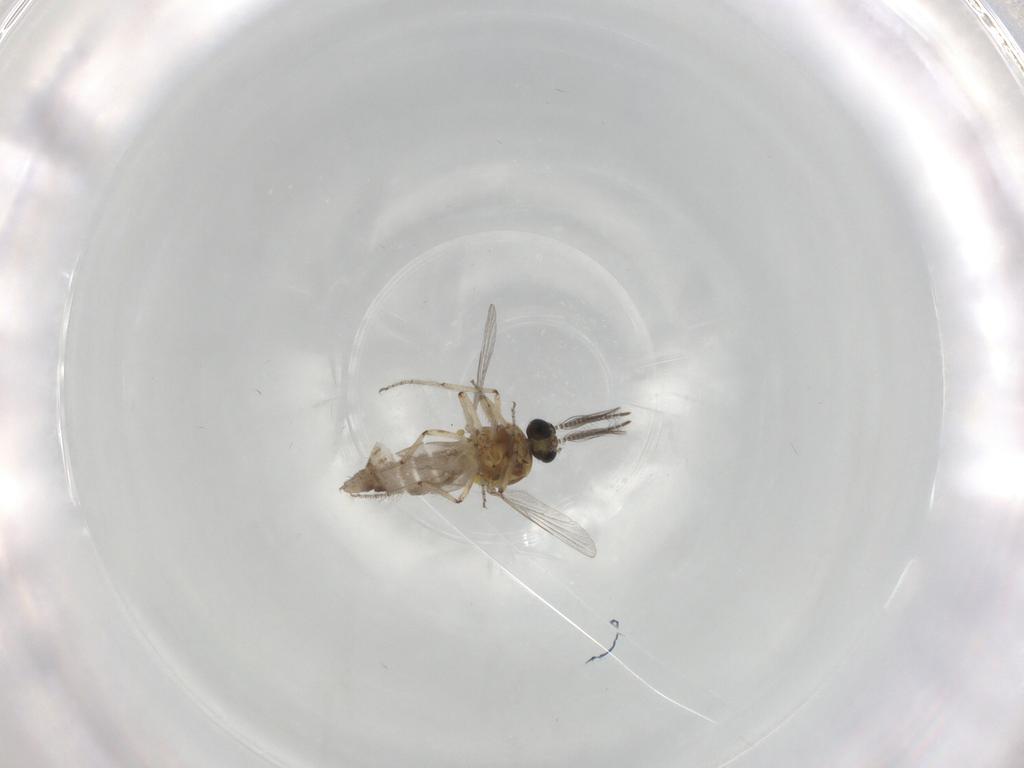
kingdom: Animalia
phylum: Arthropoda
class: Insecta
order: Diptera
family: Ceratopogonidae
